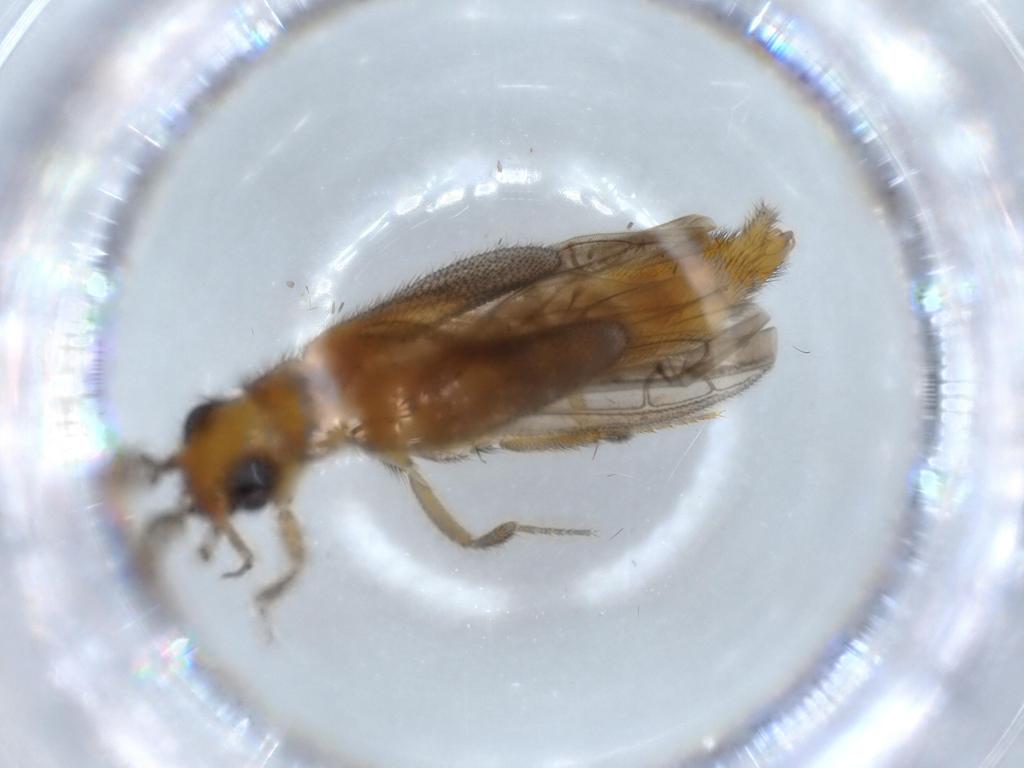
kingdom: Animalia
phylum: Arthropoda
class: Insecta
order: Coleoptera
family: Phengodidae
